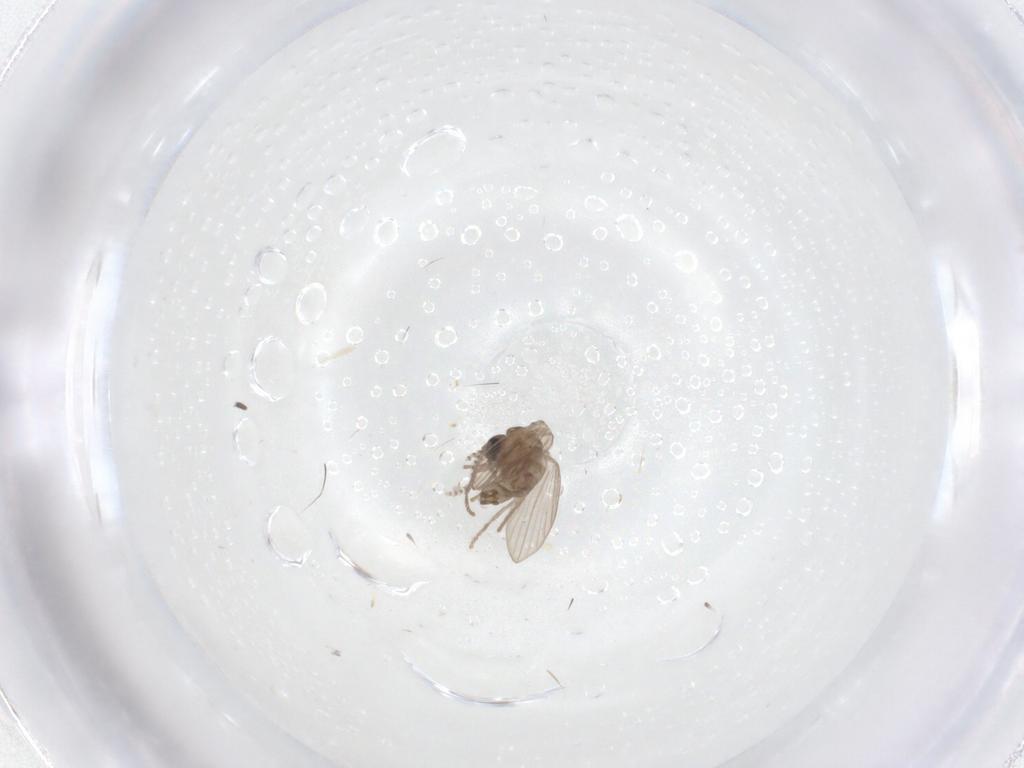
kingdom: Animalia
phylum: Arthropoda
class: Insecta
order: Diptera
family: Psychodidae
